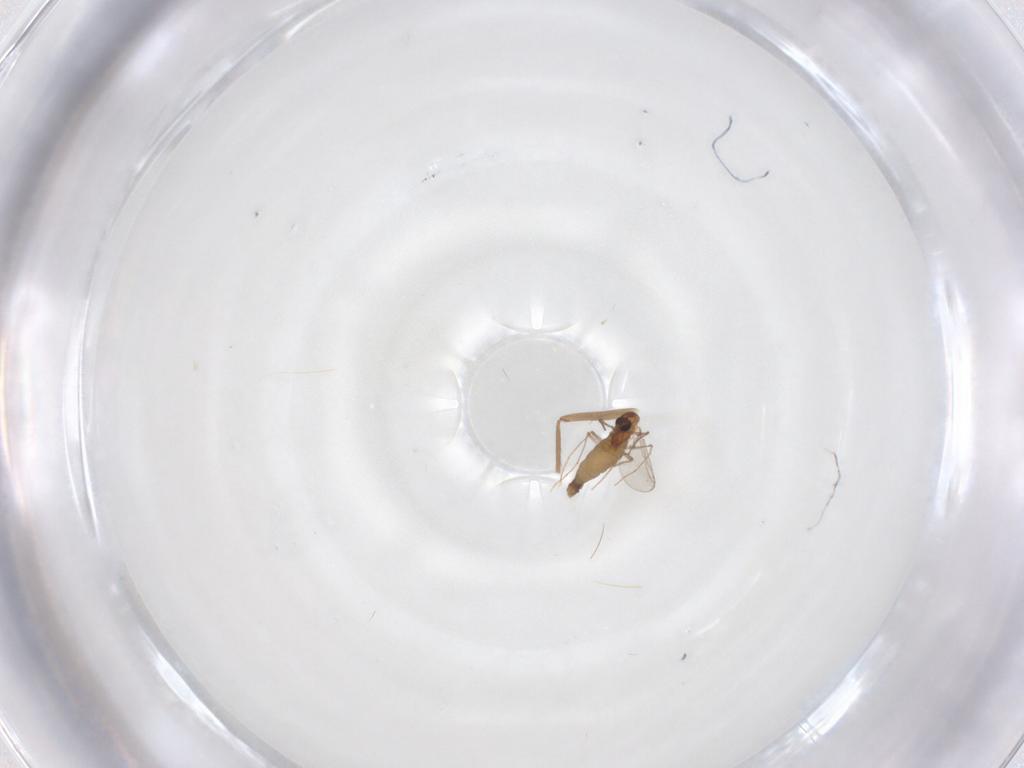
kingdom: Animalia
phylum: Arthropoda
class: Insecta
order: Diptera
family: Chironomidae
